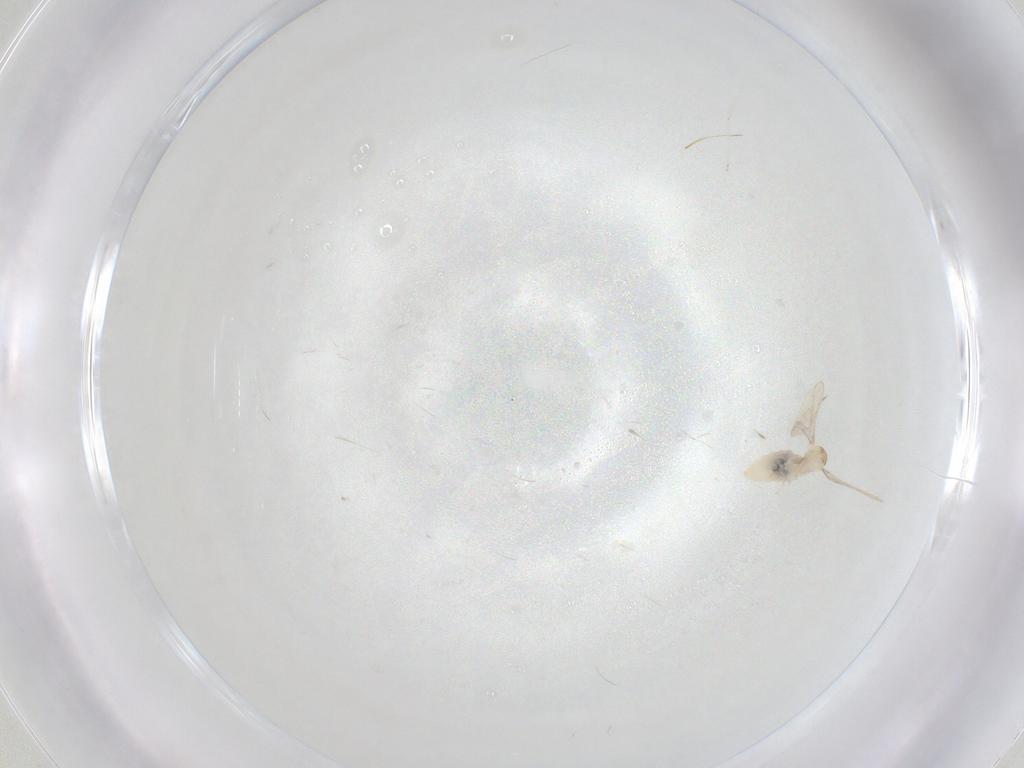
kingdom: Animalia
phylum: Arthropoda
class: Insecta
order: Diptera
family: Cecidomyiidae
